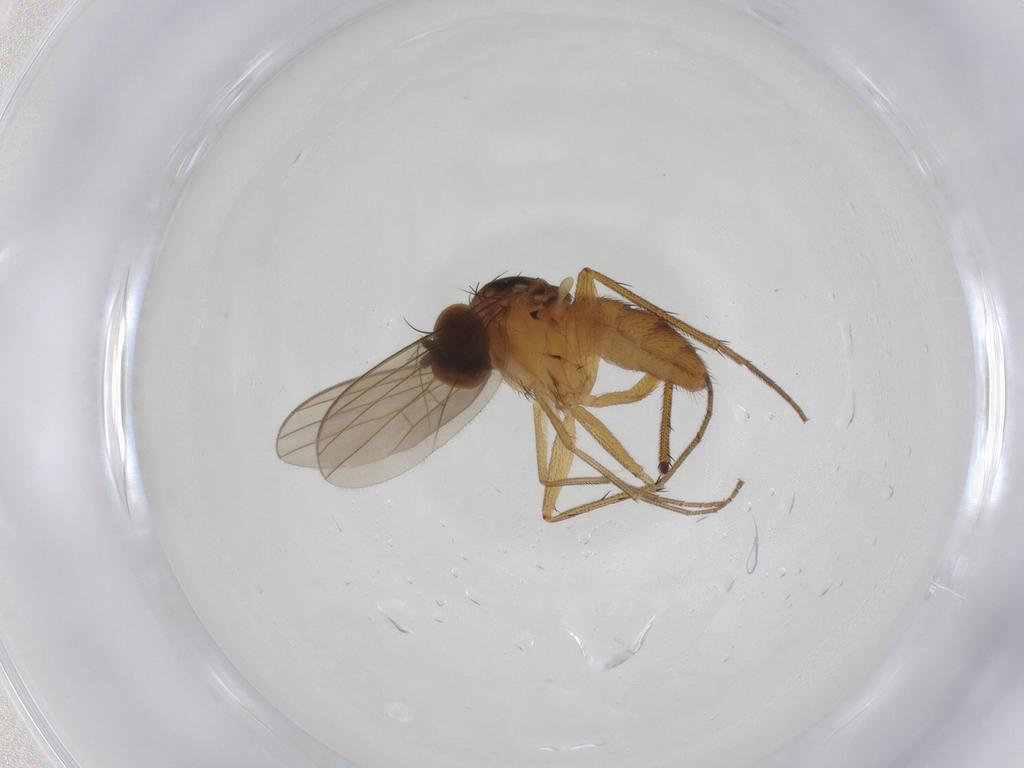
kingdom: Animalia
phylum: Arthropoda
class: Insecta
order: Diptera
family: Dolichopodidae
